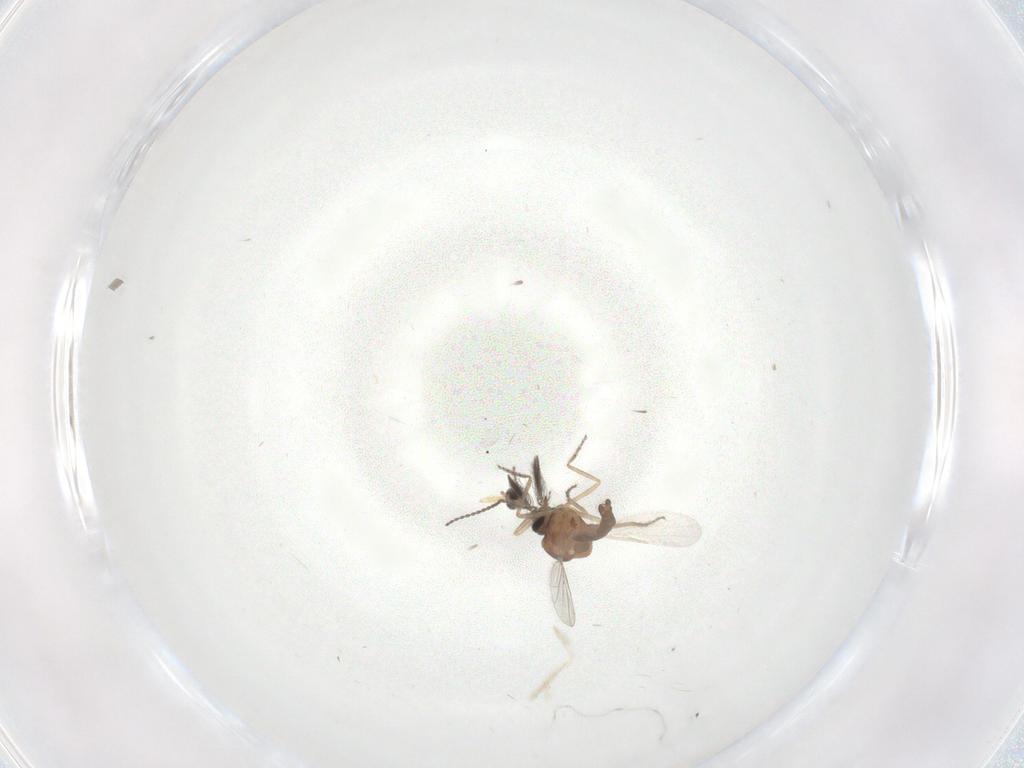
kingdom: Animalia
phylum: Arthropoda
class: Insecta
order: Diptera
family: Ceratopogonidae
